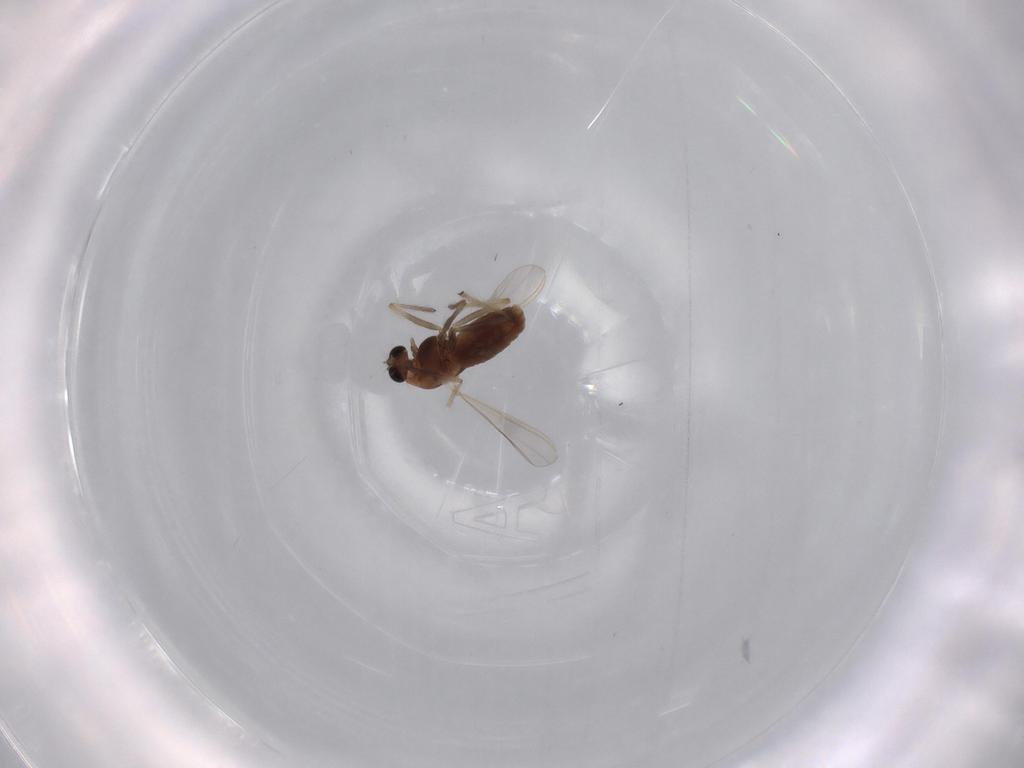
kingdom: Animalia
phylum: Arthropoda
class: Insecta
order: Diptera
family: Chironomidae
